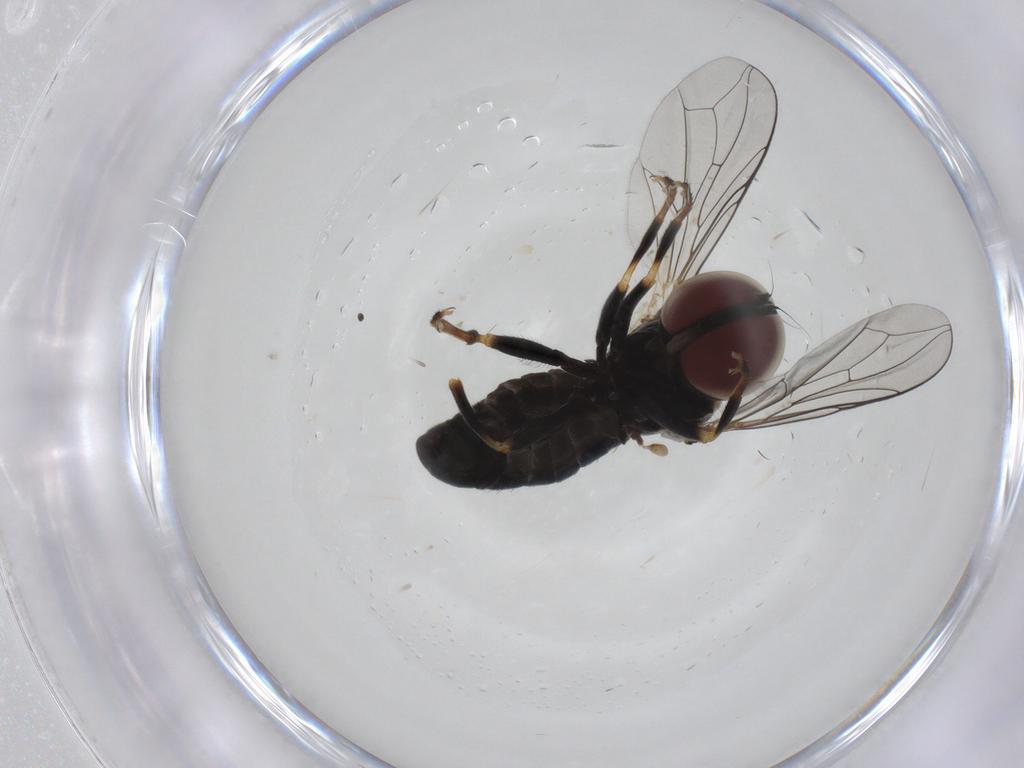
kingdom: Animalia
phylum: Arthropoda
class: Insecta
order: Diptera
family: Pipunculidae
